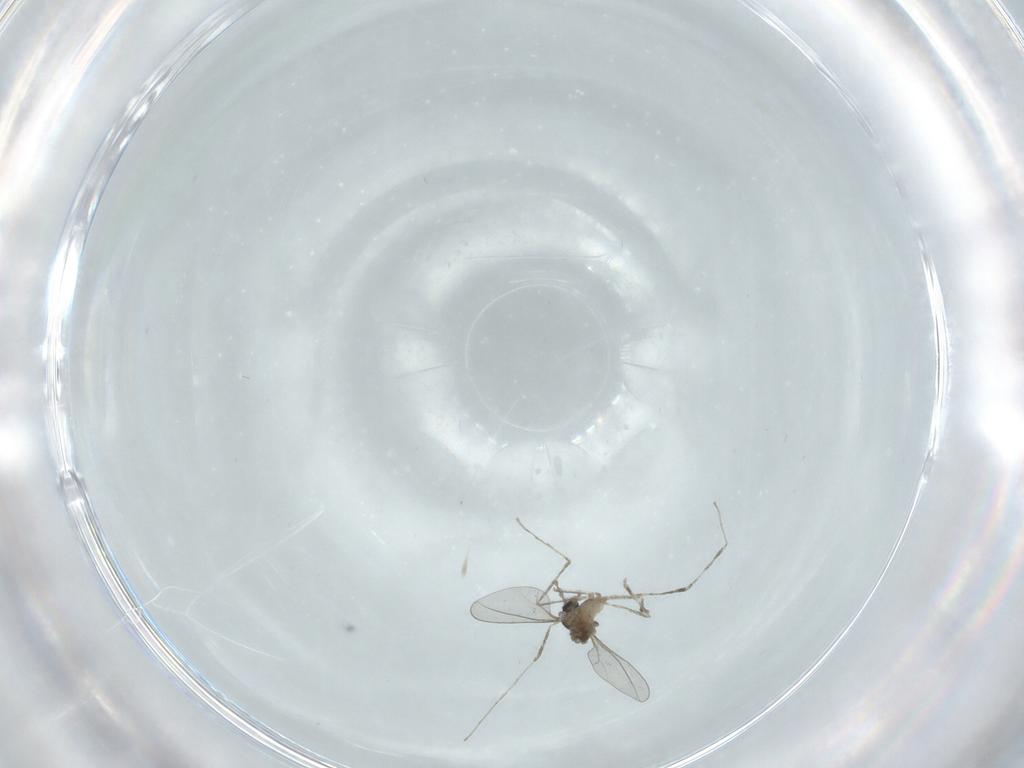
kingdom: Animalia
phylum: Arthropoda
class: Insecta
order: Diptera
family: Cecidomyiidae
